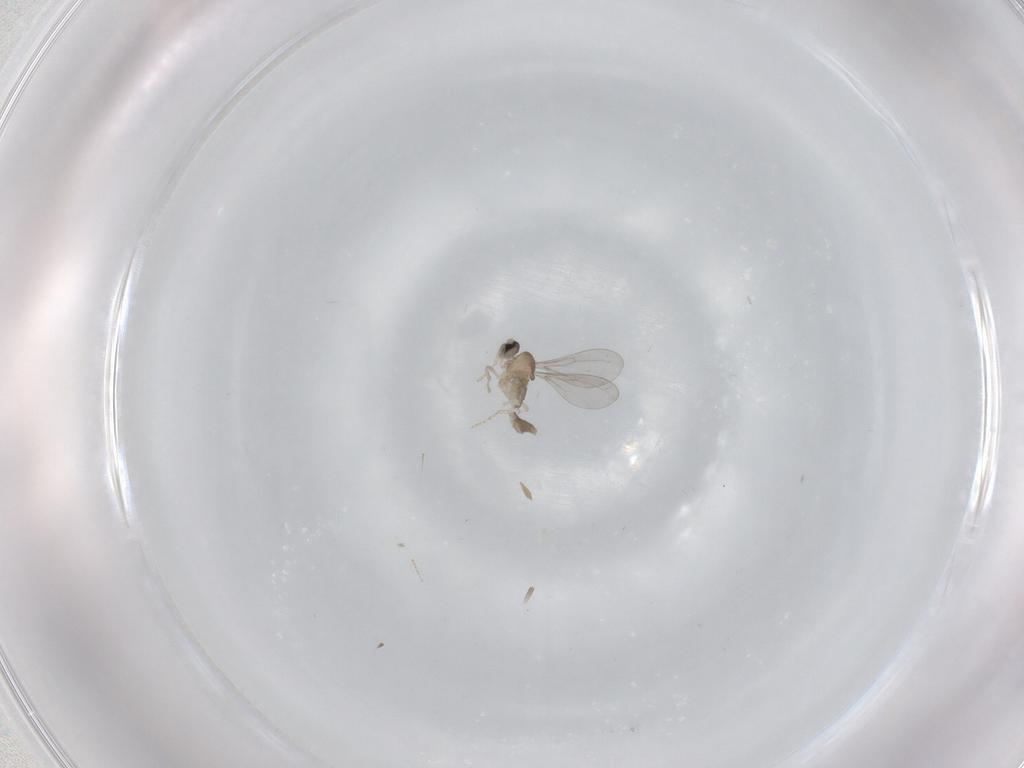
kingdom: Animalia
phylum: Arthropoda
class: Insecta
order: Diptera
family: Cecidomyiidae
